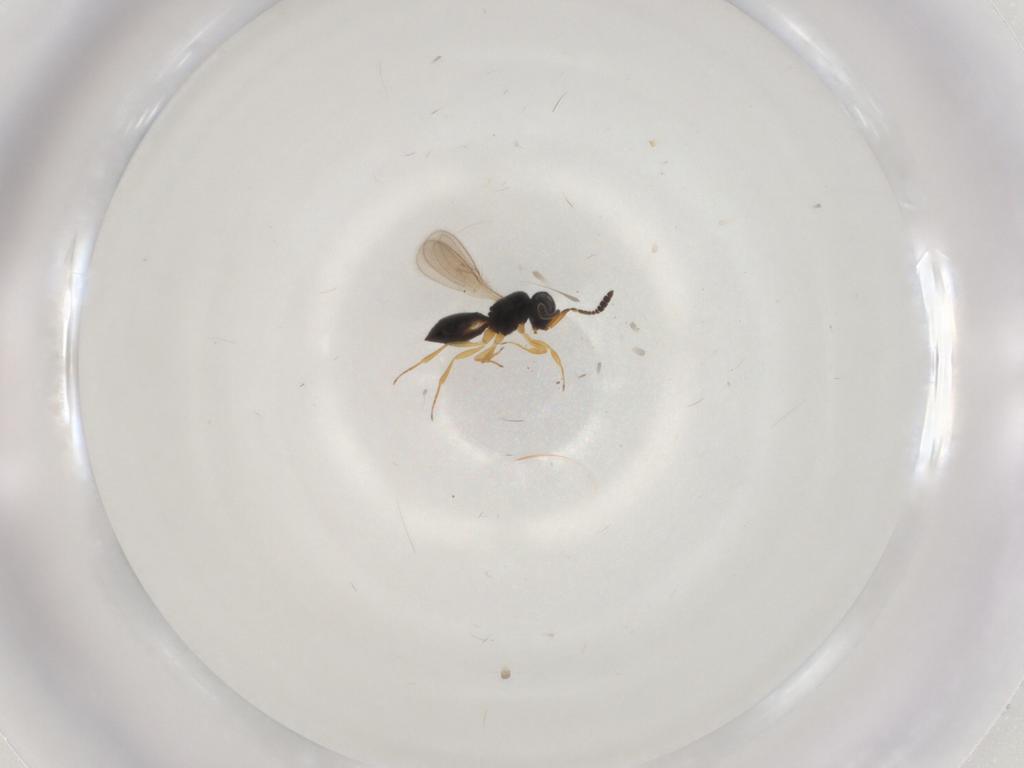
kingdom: Animalia
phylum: Arthropoda
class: Insecta
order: Hymenoptera
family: Scelionidae
